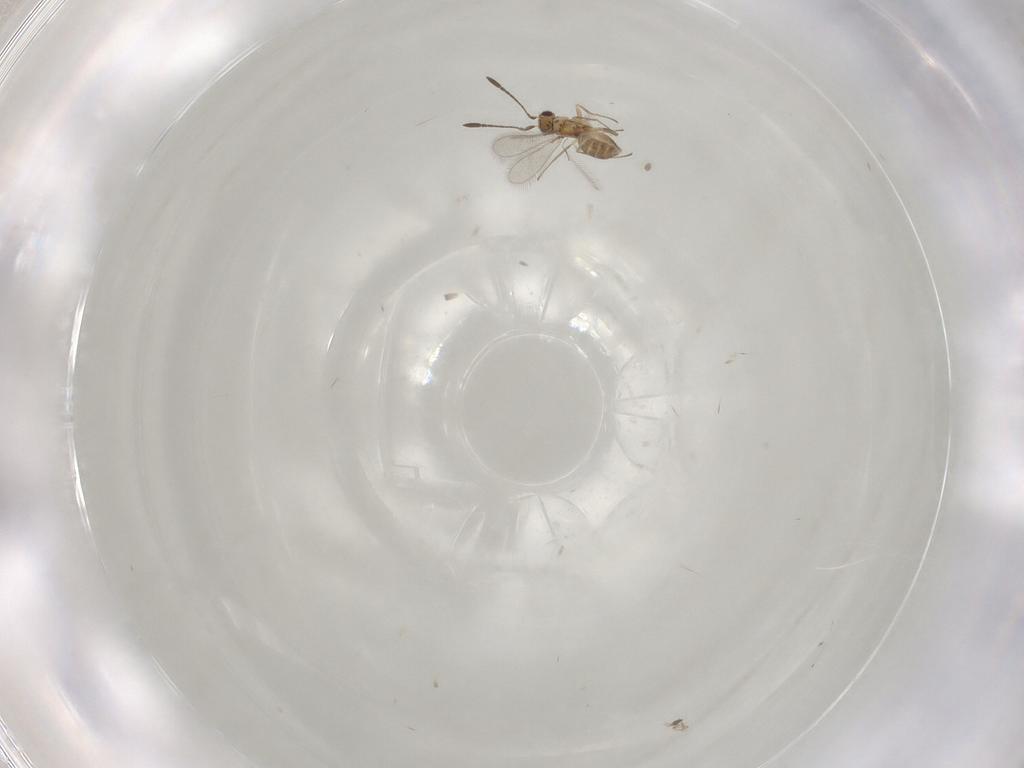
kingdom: Animalia
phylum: Arthropoda
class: Insecta
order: Hymenoptera
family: Mymaridae
